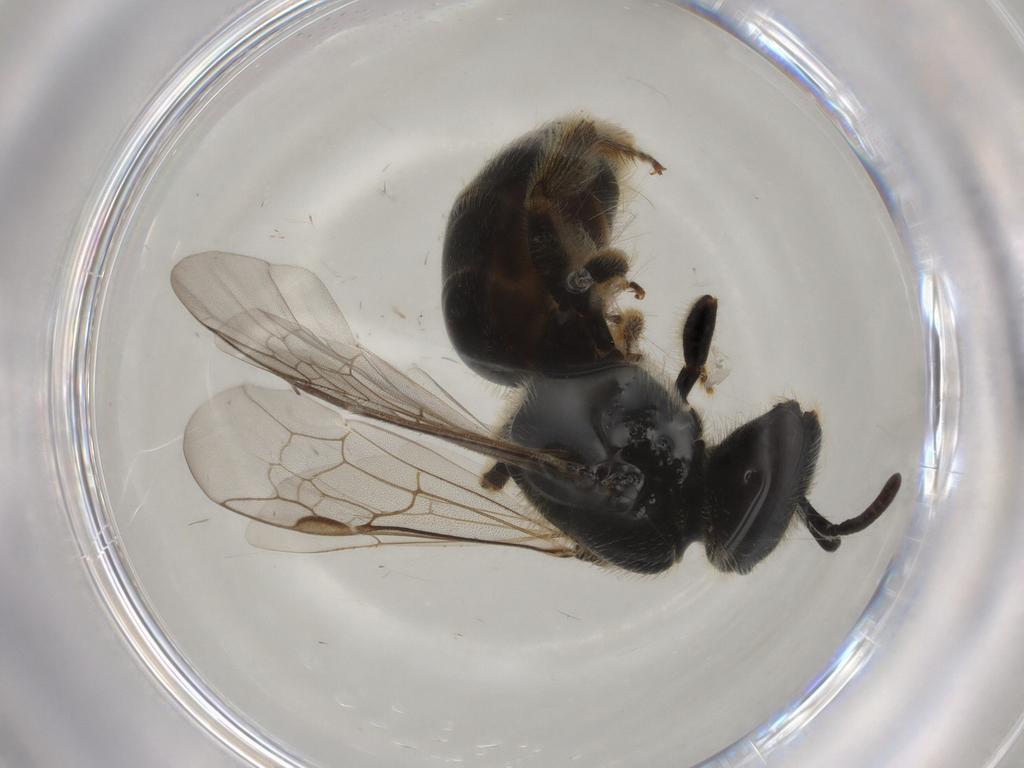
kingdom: Animalia
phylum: Arthropoda
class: Insecta
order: Hymenoptera
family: Halictidae
